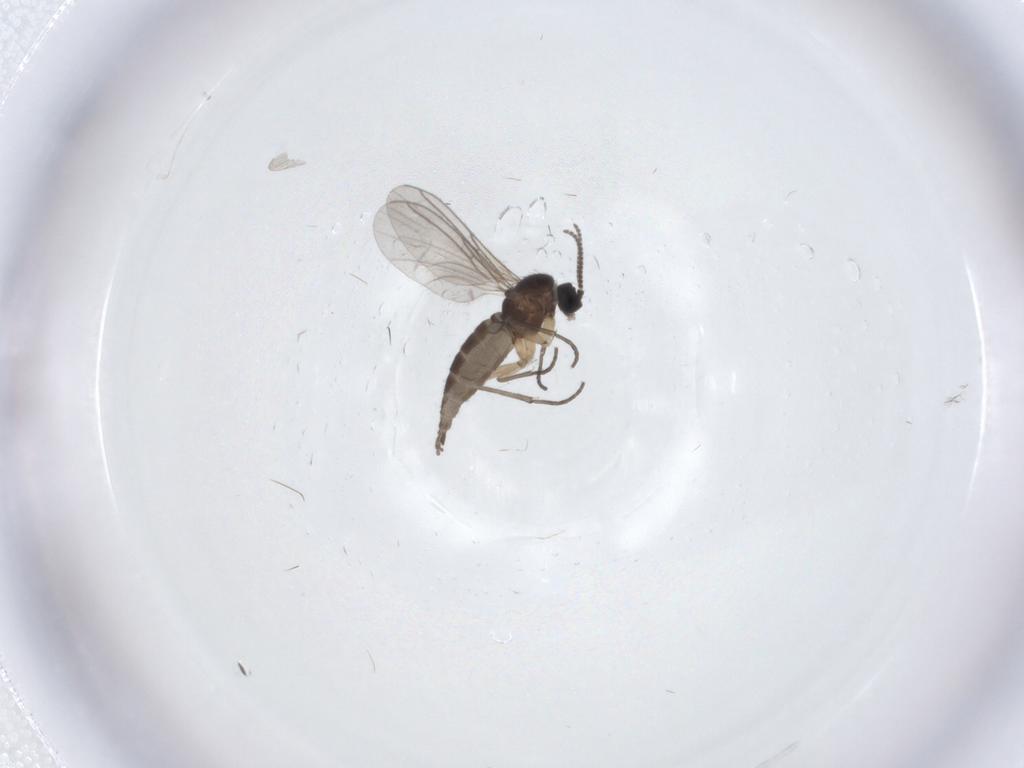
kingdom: Animalia
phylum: Arthropoda
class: Insecta
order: Diptera
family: Sciaridae
